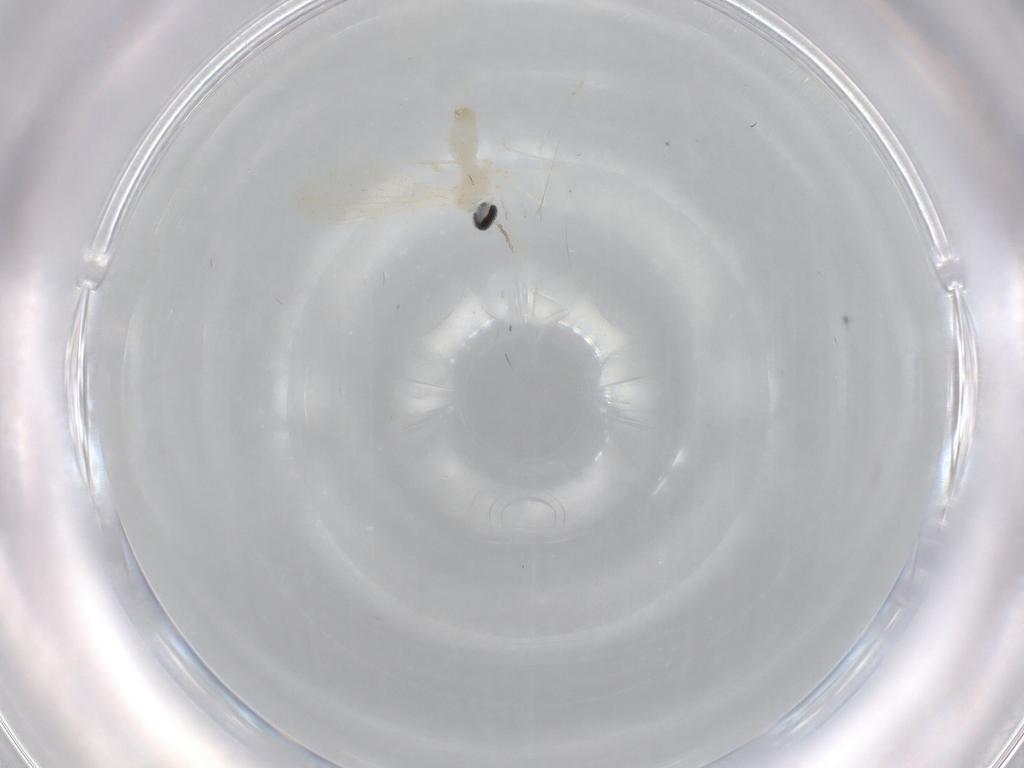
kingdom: Animalia
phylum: Arthropoda
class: Insecta
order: Diptera
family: Cecidomyiidae
